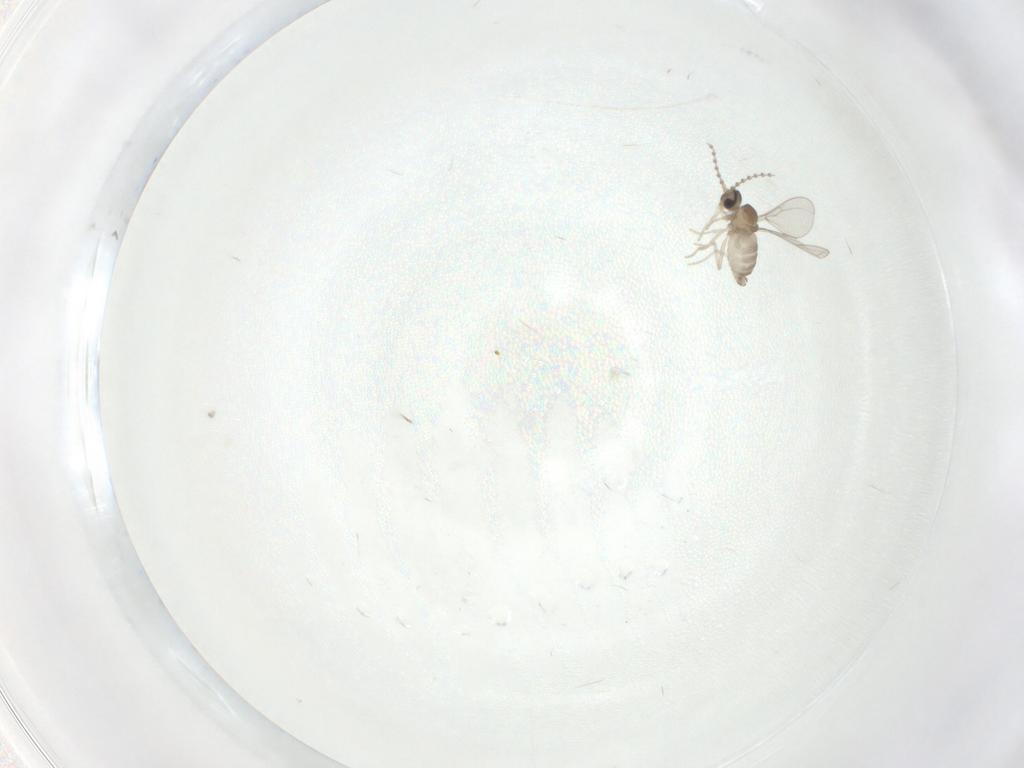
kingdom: Animalia
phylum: Arthropoda
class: Insecta
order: Diptera
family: Cecidomyiidae
